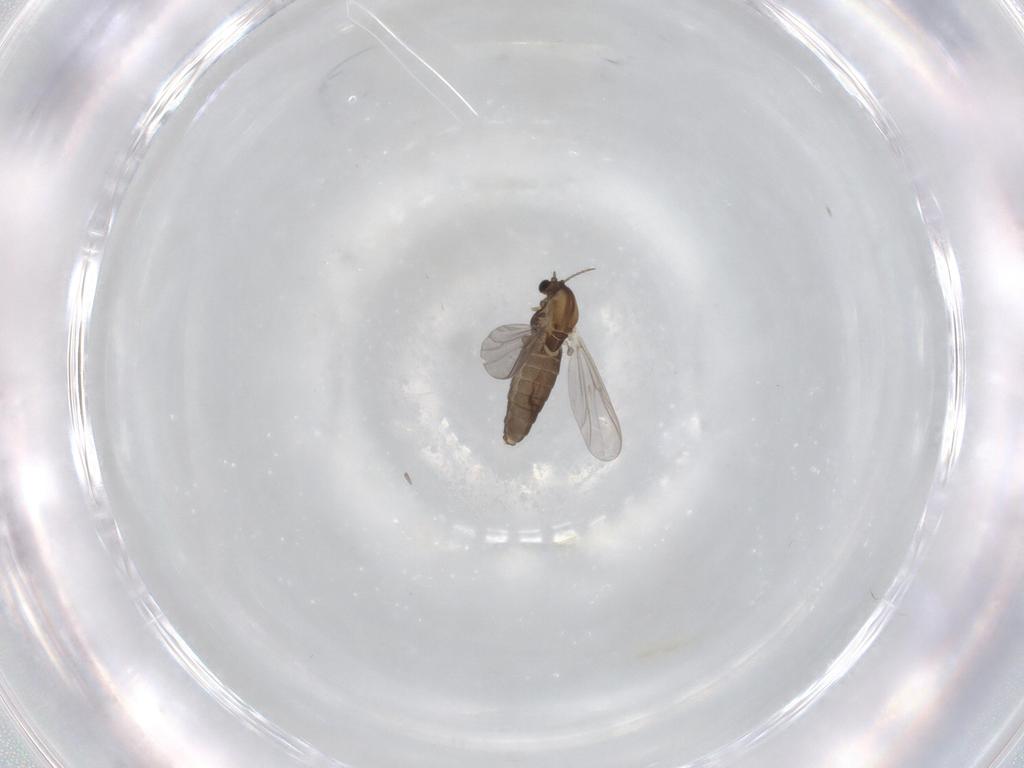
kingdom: Animalia
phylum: Arthropoda
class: Insecta
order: Diptera
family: Chironomidae
